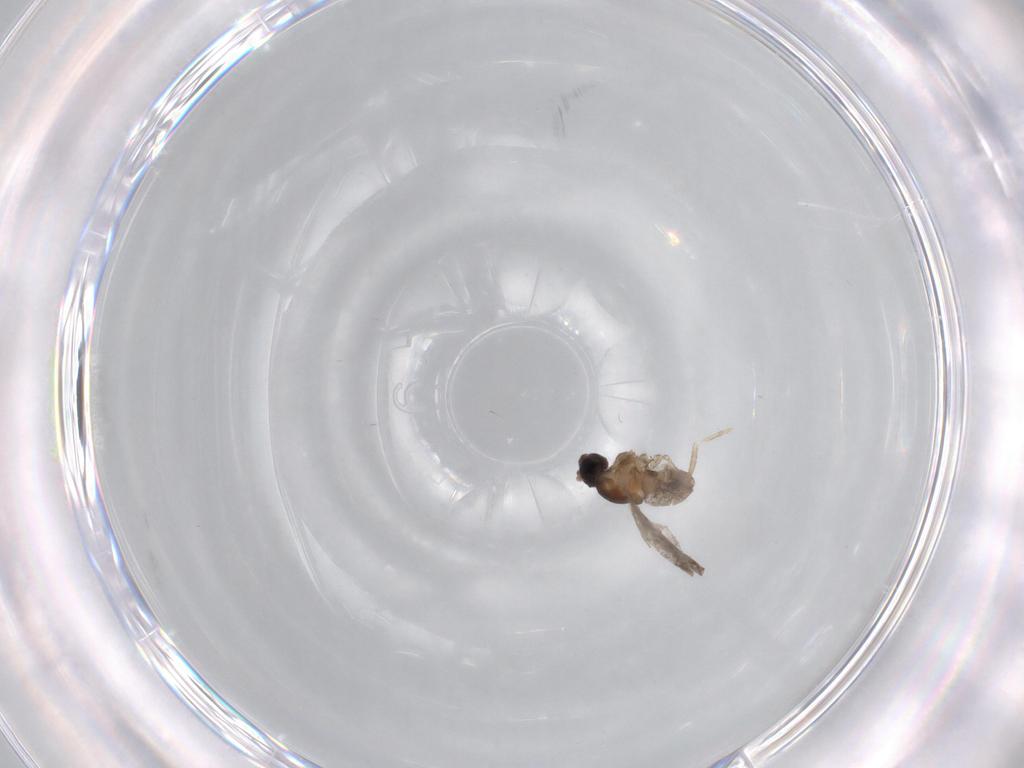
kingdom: Animalia
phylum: Arthropoda
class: Insecta
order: Diptera
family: Cecidomyiidae
